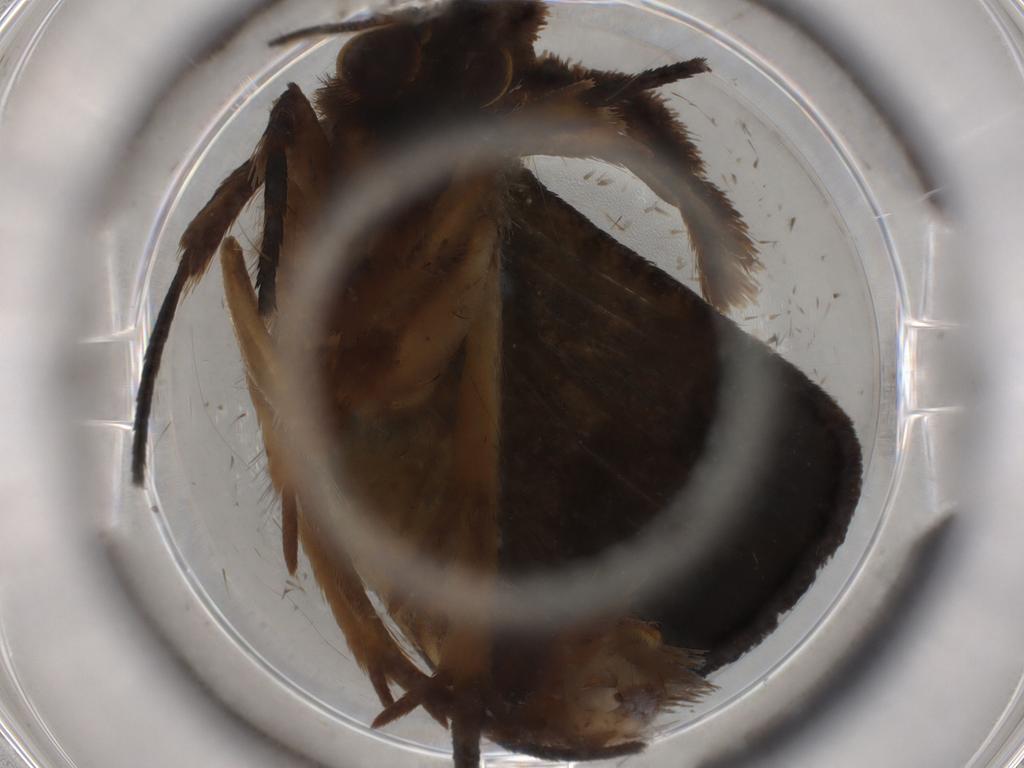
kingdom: Animalia
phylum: Arthropoda
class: Insecta
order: Lepidoptera
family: Tineidae
